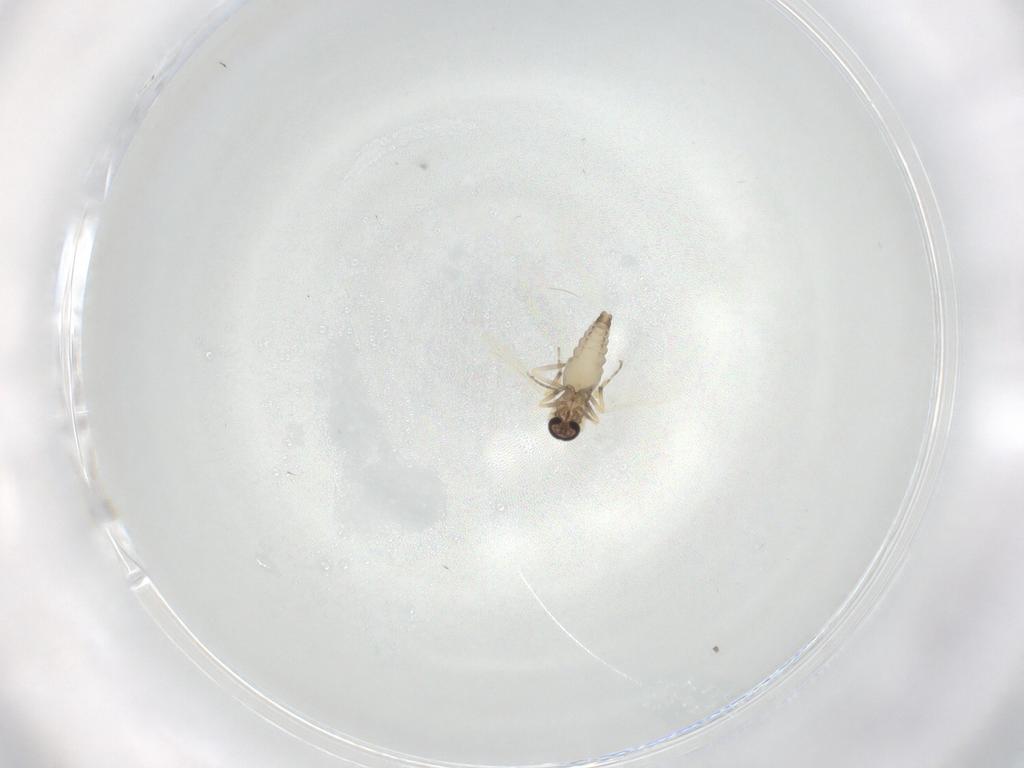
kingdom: Animalia
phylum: Arthropoda
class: Insecta
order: Diptera
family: Ceratopogonidae
